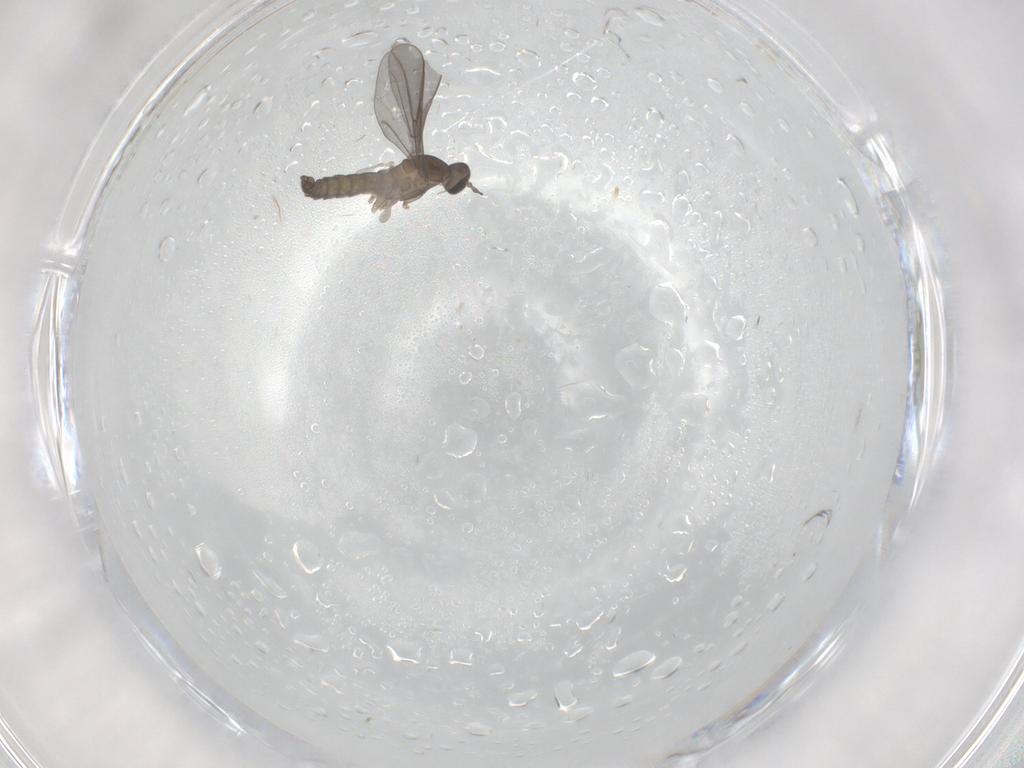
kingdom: Animalia
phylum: Arthropoda
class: Insecta
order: Diptera
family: Cecidomyiidae
